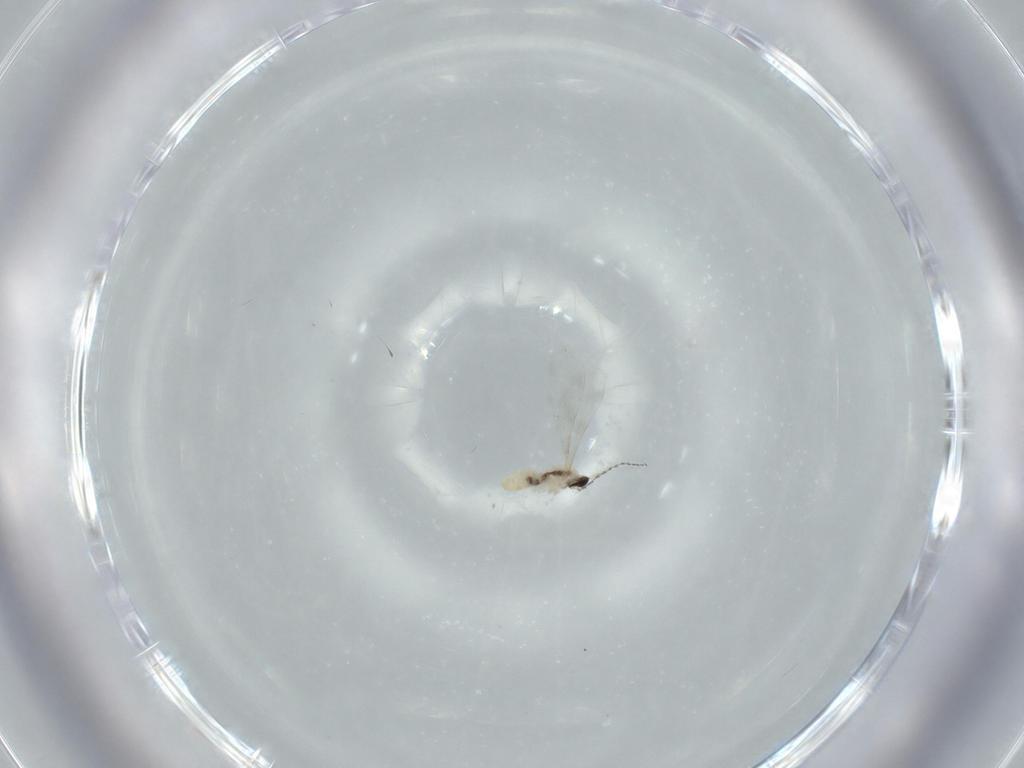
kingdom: Animalia
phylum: Arthropoda
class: Insecta
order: Diptera
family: Cecidomyiidae
